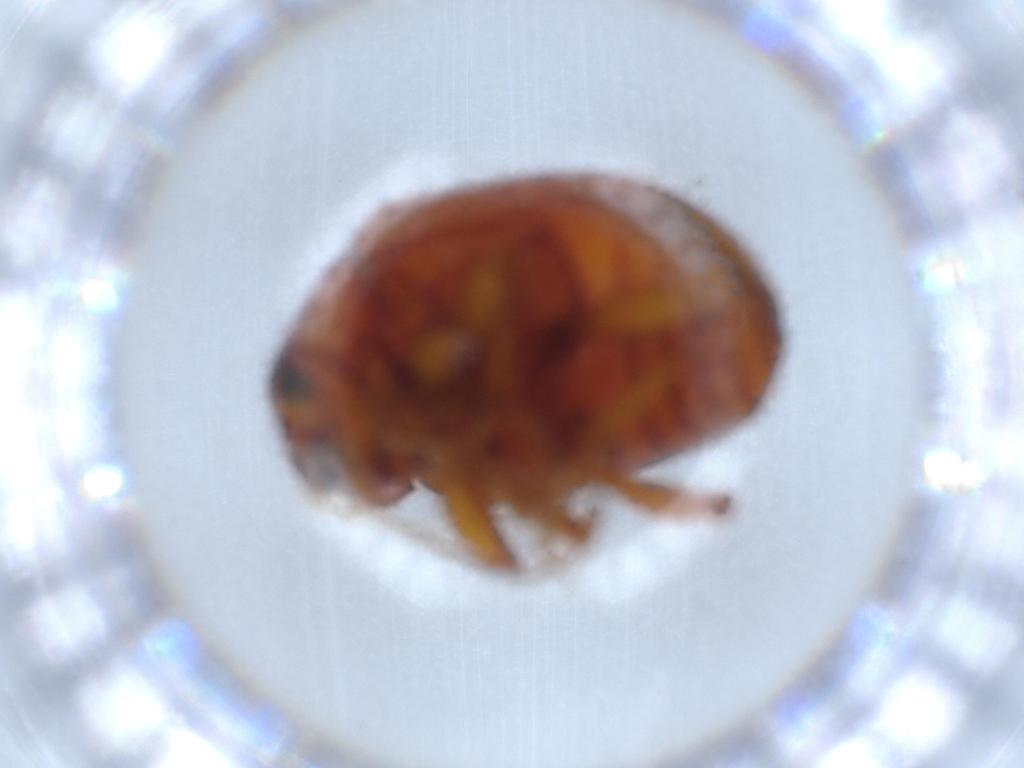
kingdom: Animalia
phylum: Arthropoda
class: Insecta
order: Coleoptera
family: Chrysomelidae
